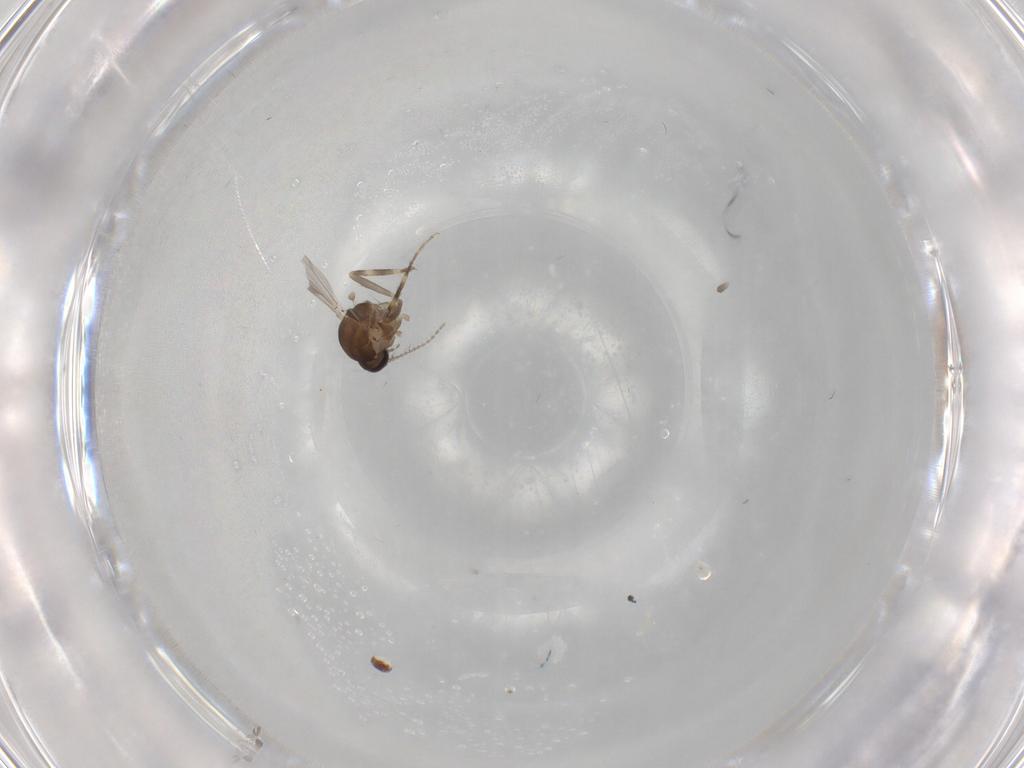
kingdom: Animalia
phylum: Arthropoda
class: Insecta
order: Diptera
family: Ceratopogonidae
